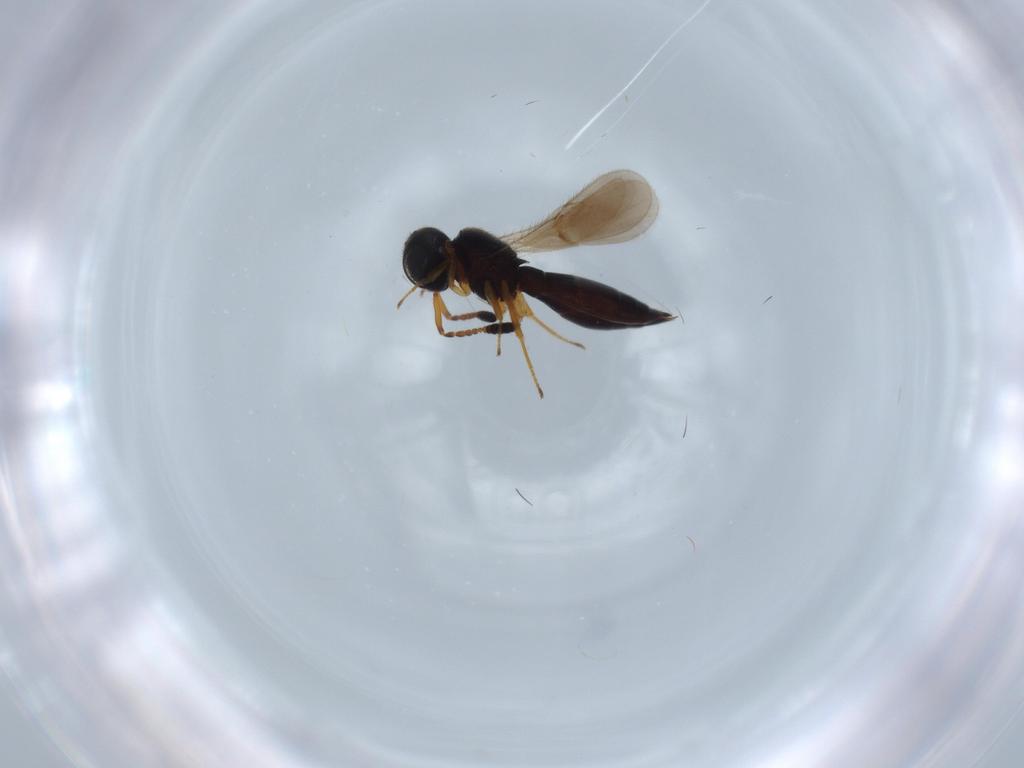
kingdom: Animalia
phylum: Arthropoda
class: Insecta
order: Hymenoptera
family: Scelionidae
